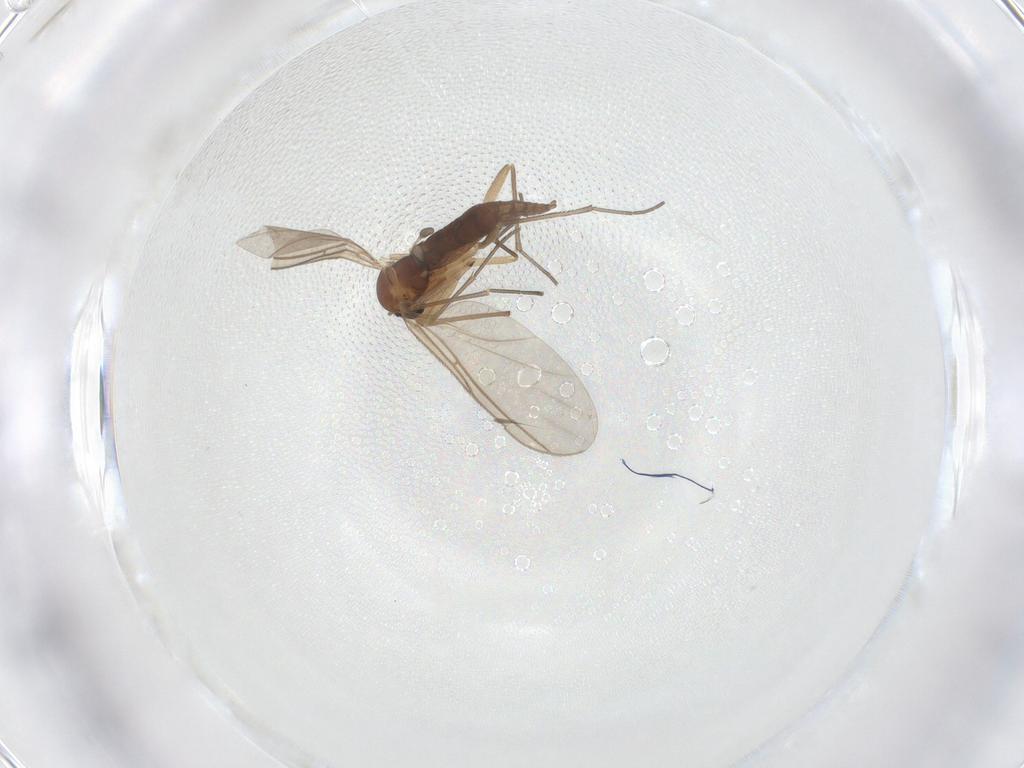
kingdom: Animalia
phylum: Arthropoda
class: Insecta
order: Diptera
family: Sciaridae
